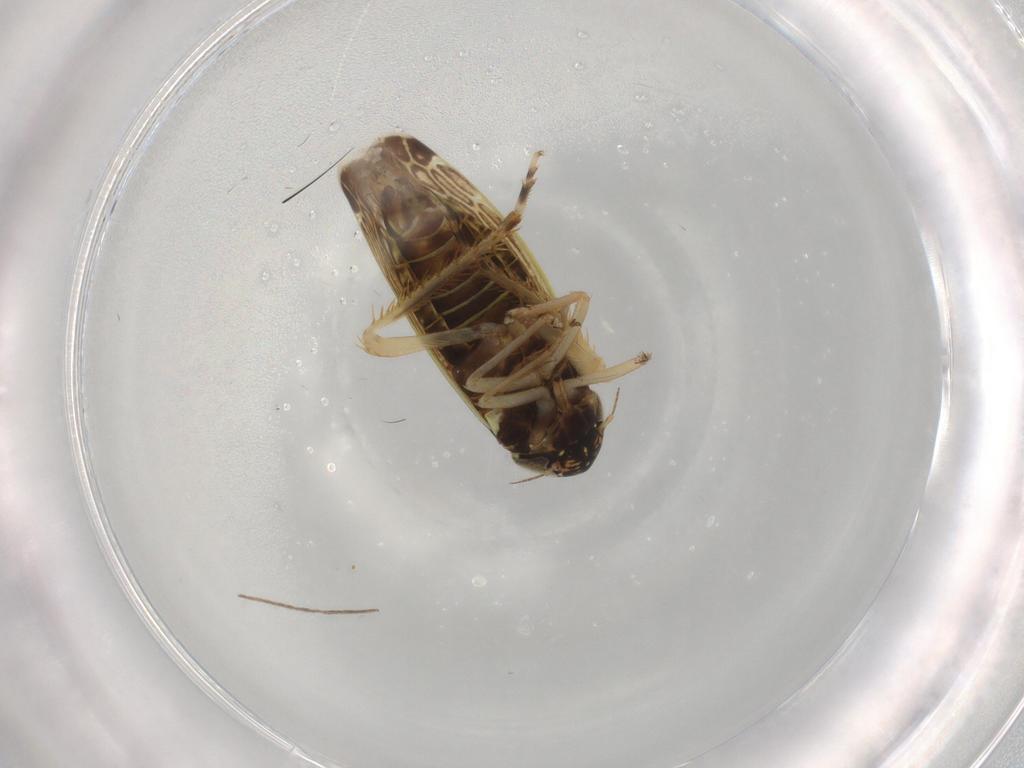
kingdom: Animalia
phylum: Arthropoda
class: Insecta
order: Hemiptera
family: Cicadellidae
